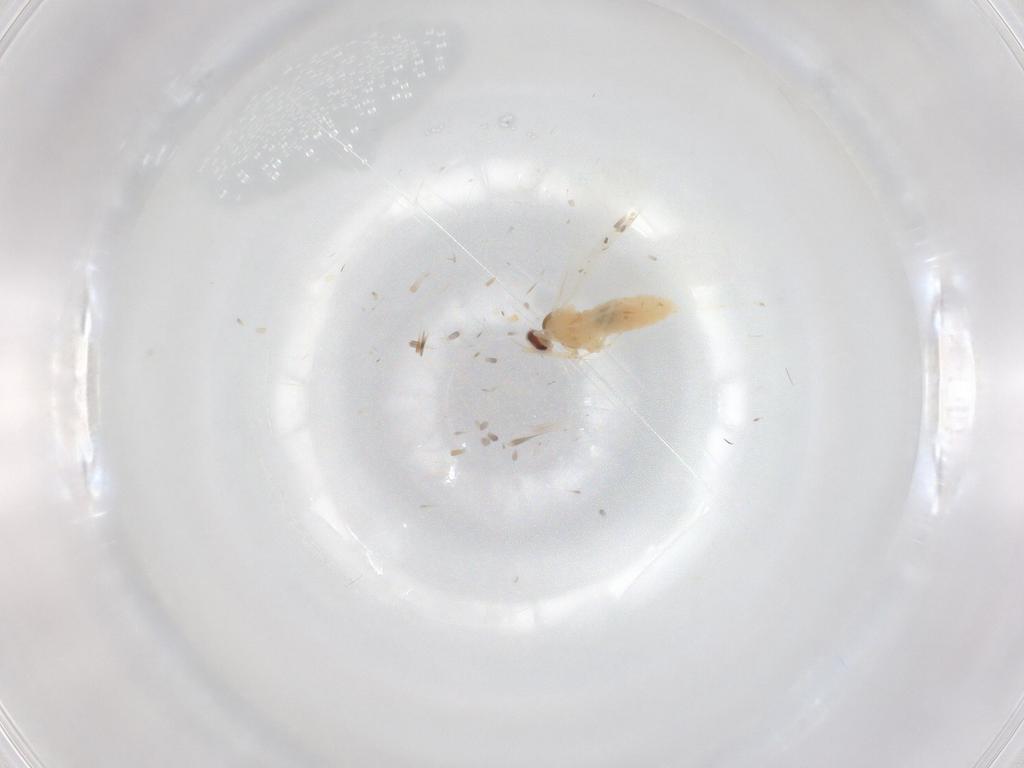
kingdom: Animalia
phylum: Arthropoda
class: Insecta
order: Diptera
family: Cecidomyiidae
